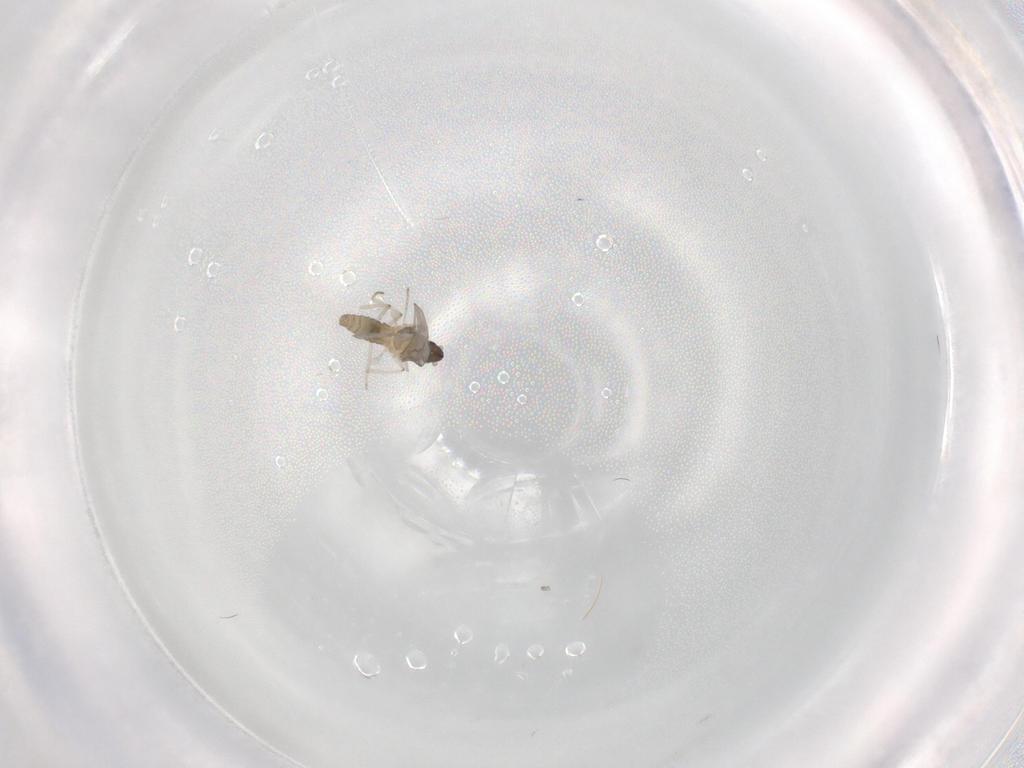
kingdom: Animalia
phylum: Arthropoda
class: Insecta
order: Diptera
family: Cecidomyiidae
